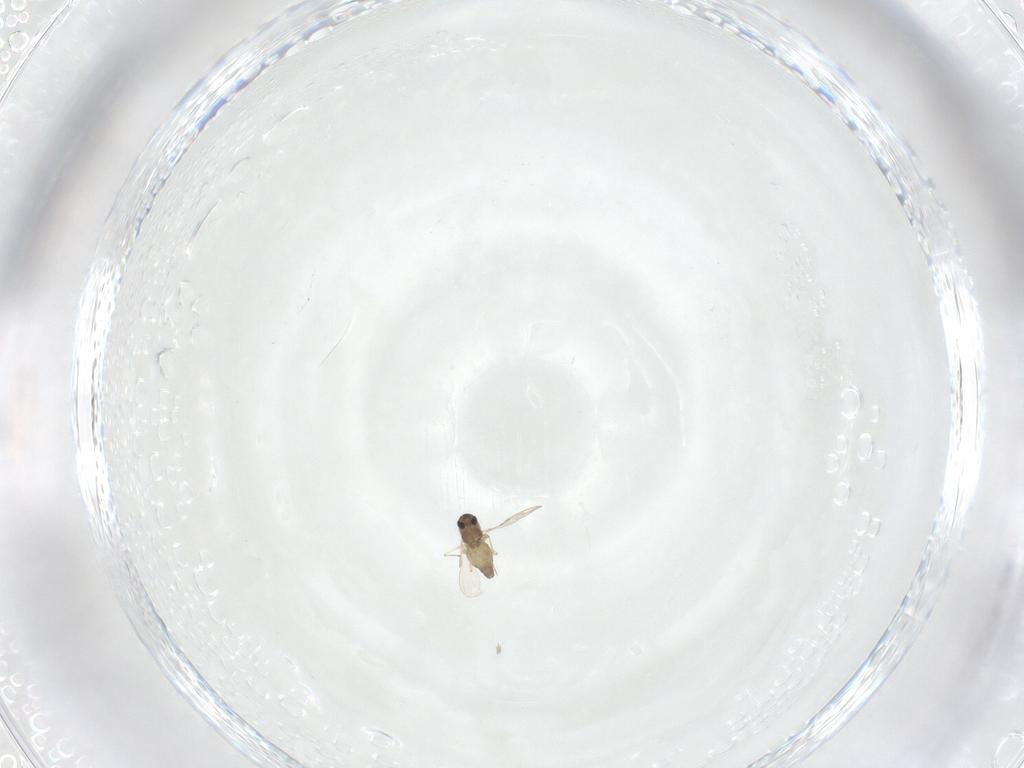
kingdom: Animalia
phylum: Arthropoda
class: Insecta
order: Diptera
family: Chironomidae
